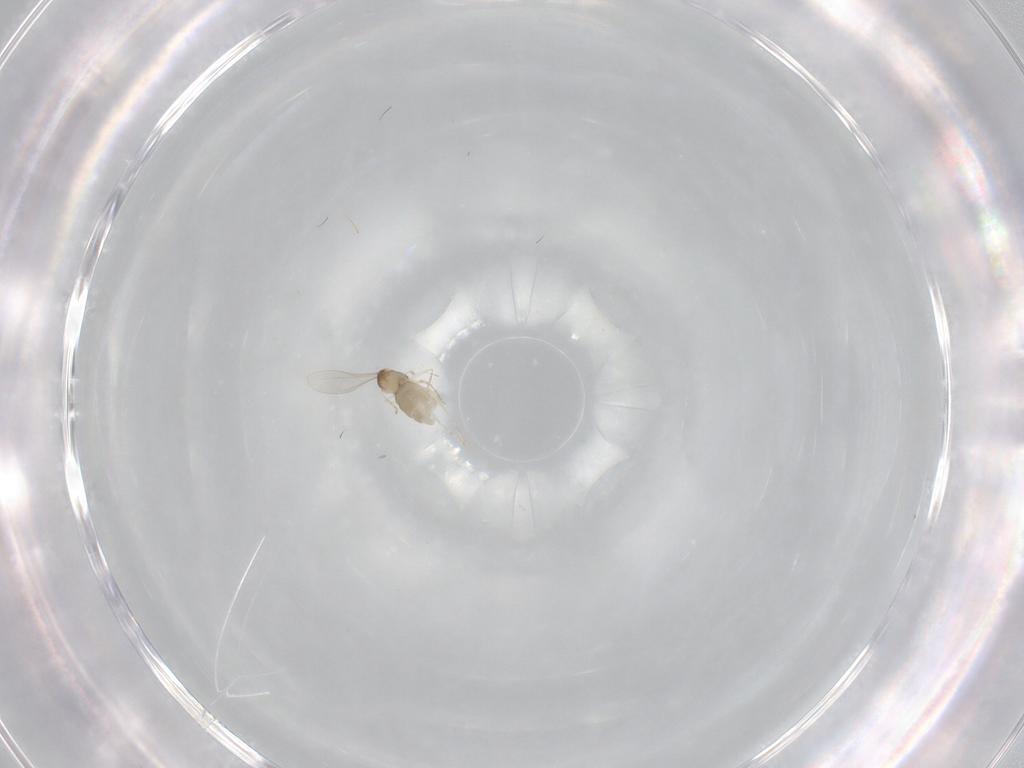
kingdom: Animalia
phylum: Arthropoda
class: Insecta
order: Diptera
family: Cecidomyiidae
